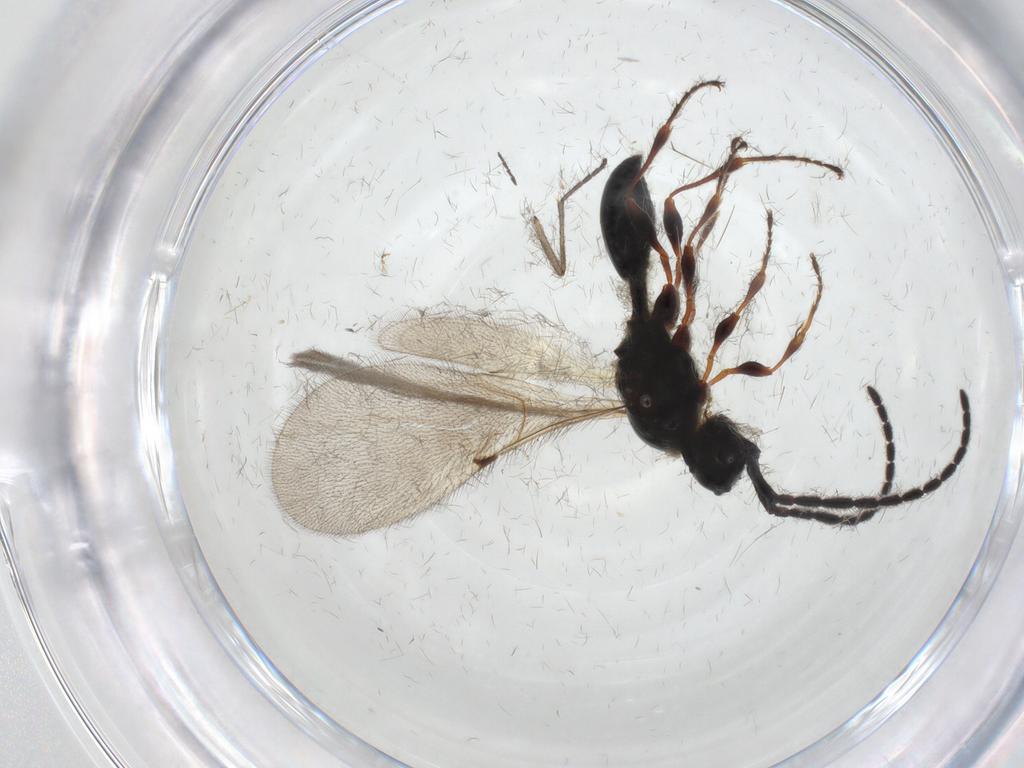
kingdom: Animalia
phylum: Arthropoda
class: Insecta
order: Hymenoptera
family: Diapriidae
